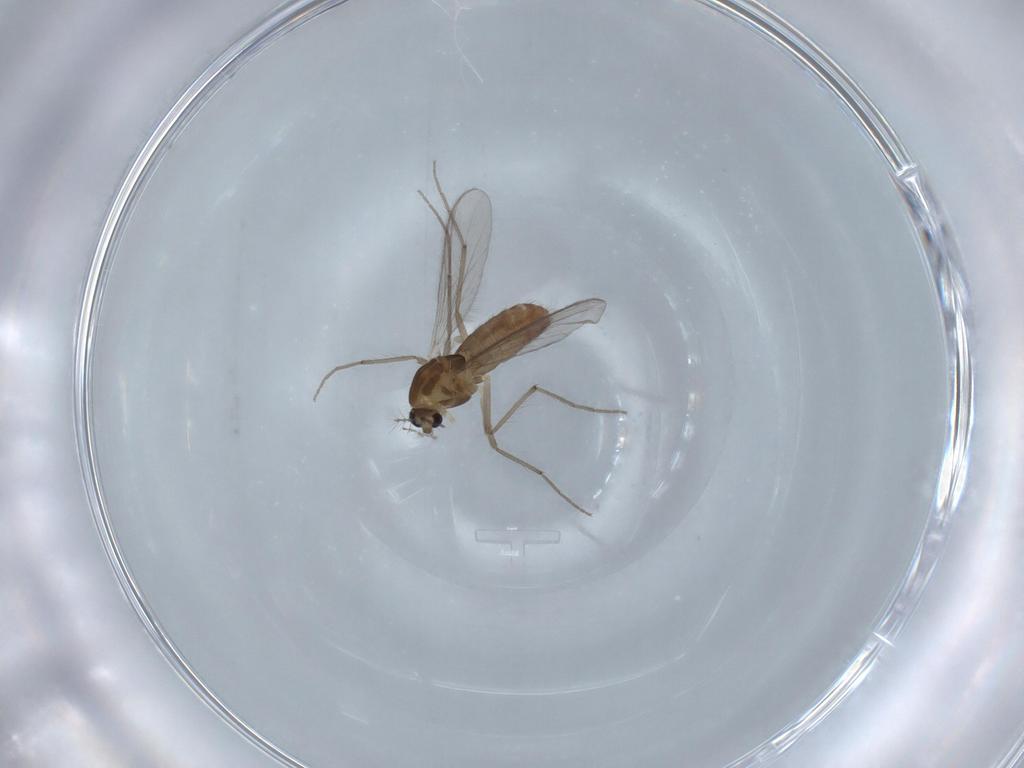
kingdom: Animalia
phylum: Arthropoda
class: Insecta
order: Diptera
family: Chironomidae
